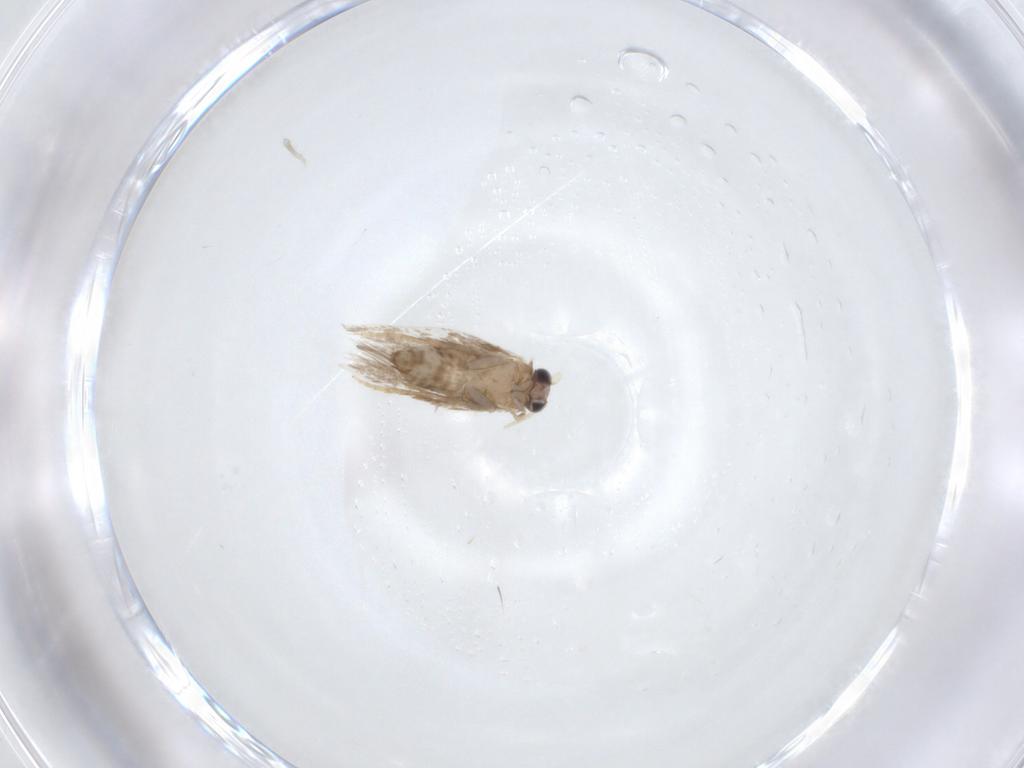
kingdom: Animalia
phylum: Arthropoda
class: Insecta
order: Lepidoptera
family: Nepticulidae
